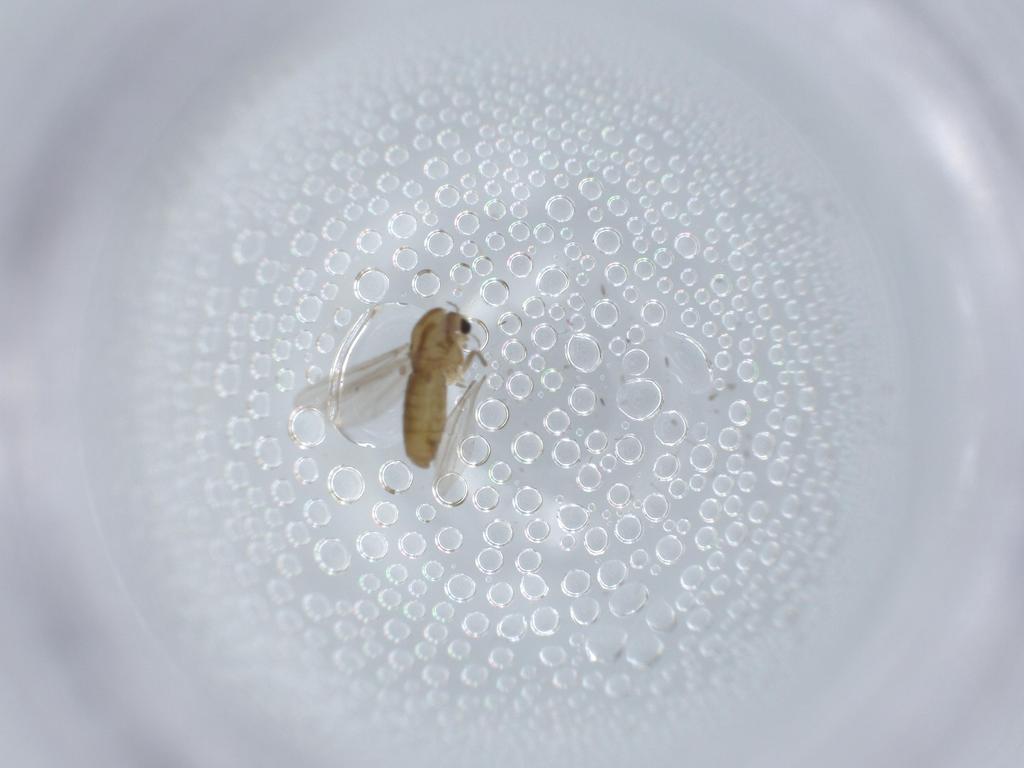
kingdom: Animalia
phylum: Arthropoda
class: Insecta
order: Diptera
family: Chironomidae
